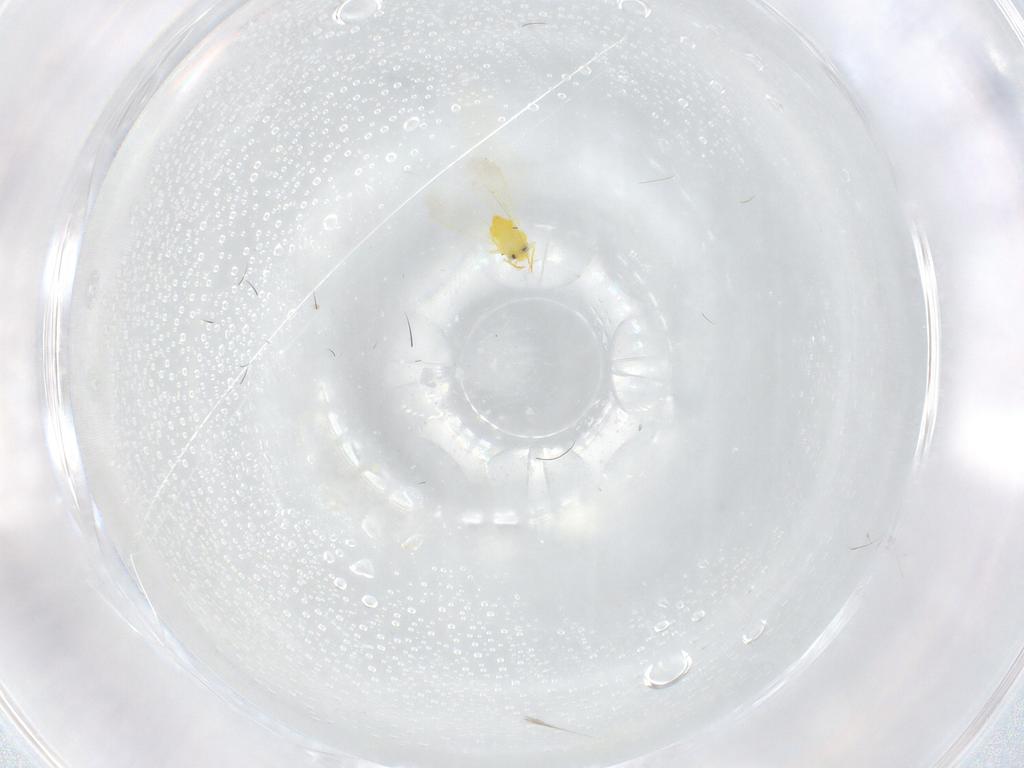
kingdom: Animalia
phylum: Arthropoda
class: Insecta
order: Hemiptera
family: Aleyrodidae
